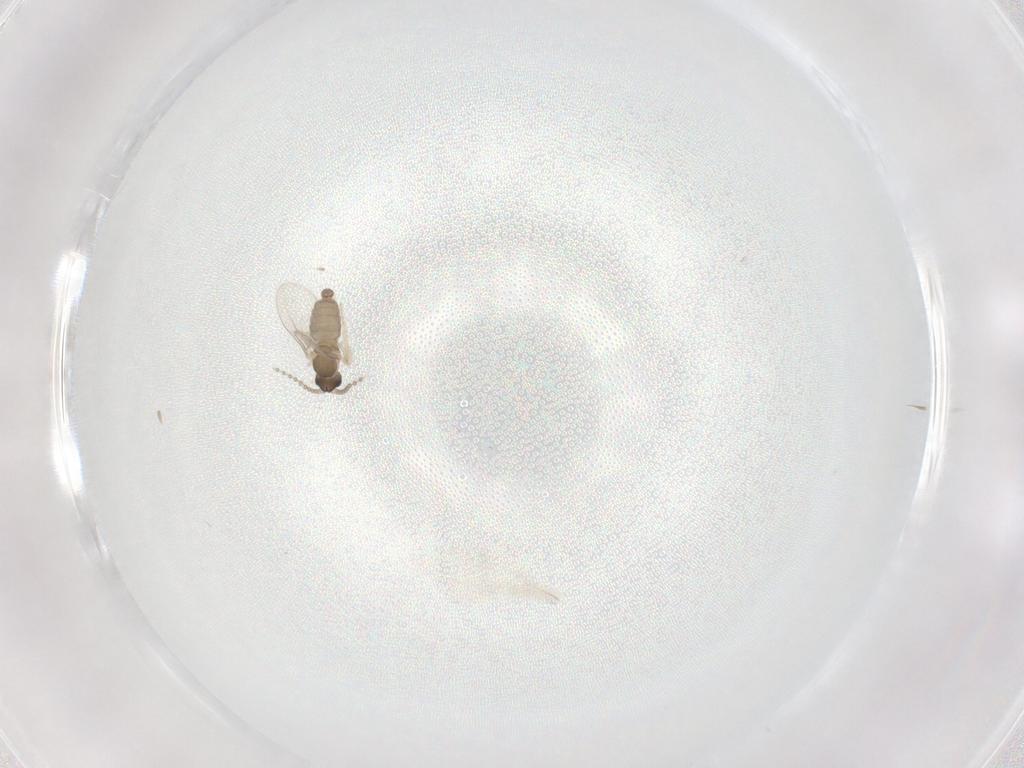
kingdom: Animalia
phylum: Arthropoda
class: Insecta
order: Diptera
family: Cecidomyiidae
